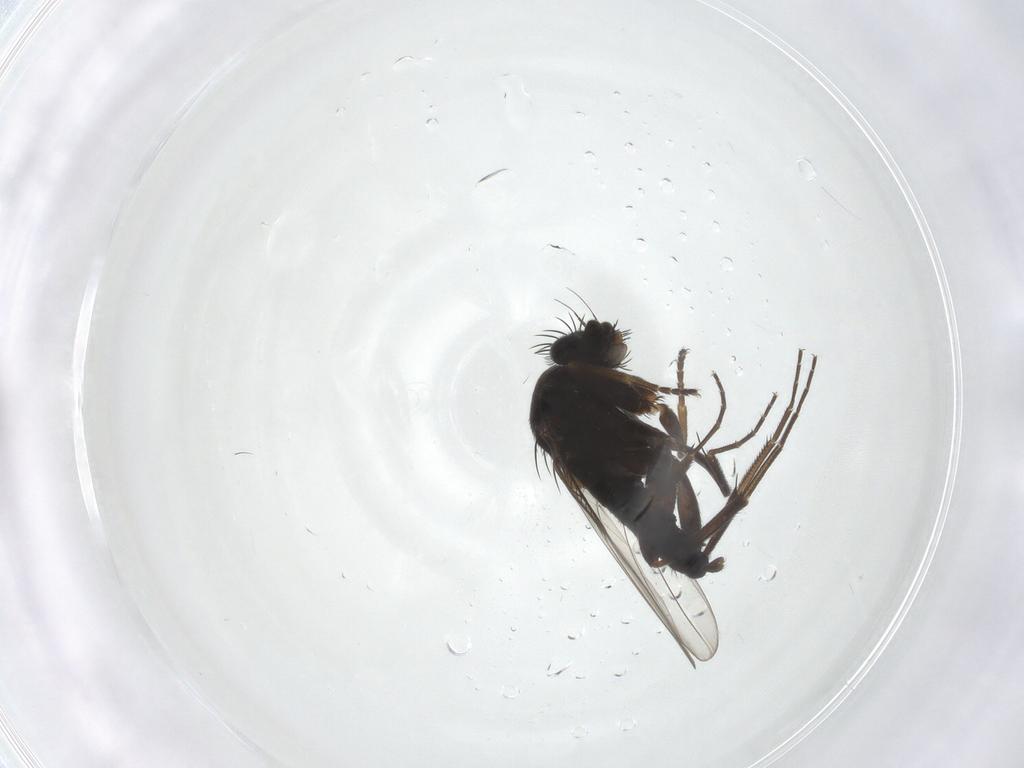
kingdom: Animalia
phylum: Arthropoda
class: Insecta
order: Diptera
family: Phoridae
